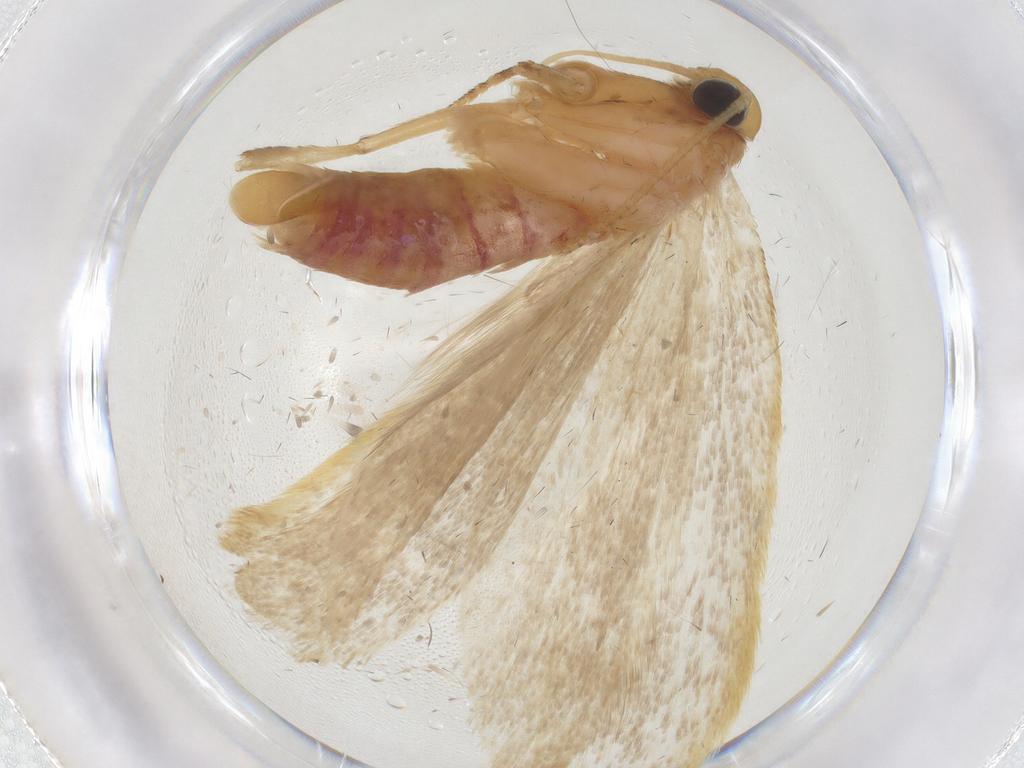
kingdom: Animalia
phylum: Arthropoda
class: Insecta
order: Lepidoptera
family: Autostichidae
